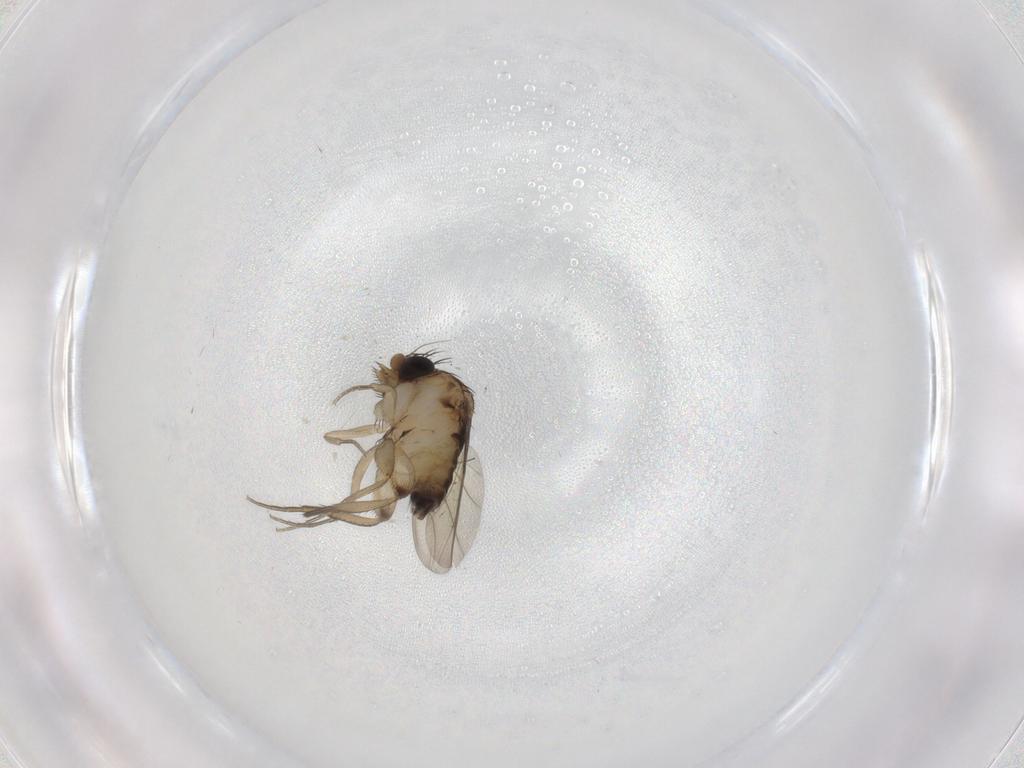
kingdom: Animalia
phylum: Arthropoda
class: Insecta
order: Diptera
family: Phoridae
